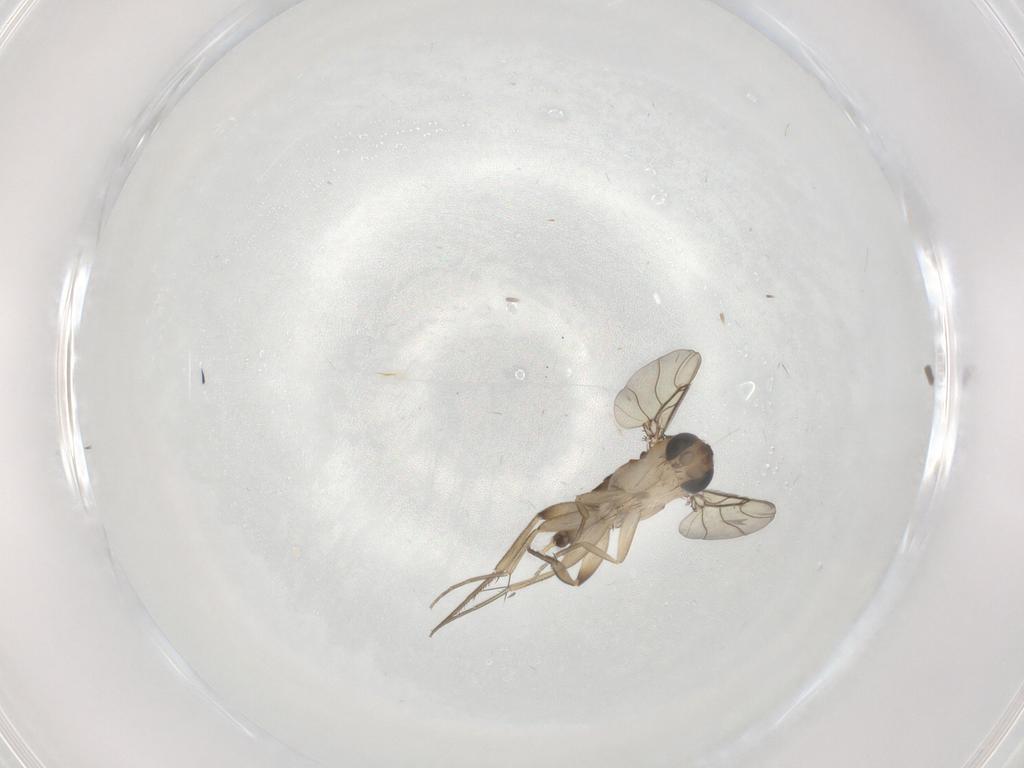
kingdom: Animalia
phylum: Arthropoda
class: Insecta
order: Diptera
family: Phoridae
